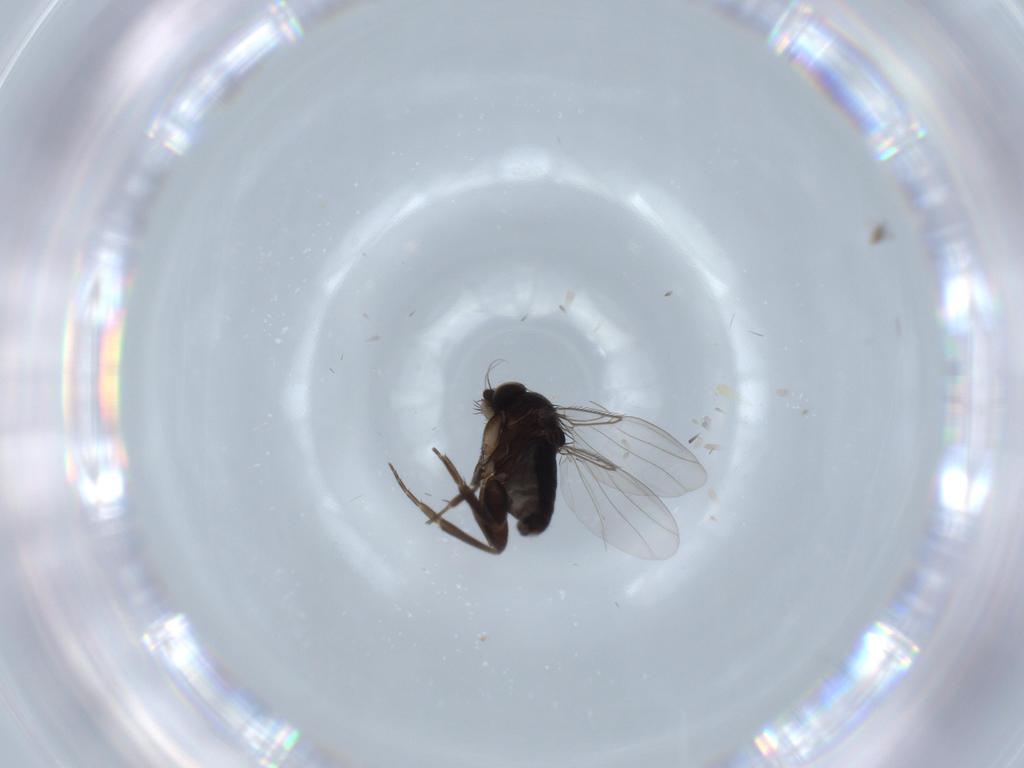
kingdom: Animalia
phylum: Arthropoda
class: Insecta
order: Diptera
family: Phoridae
